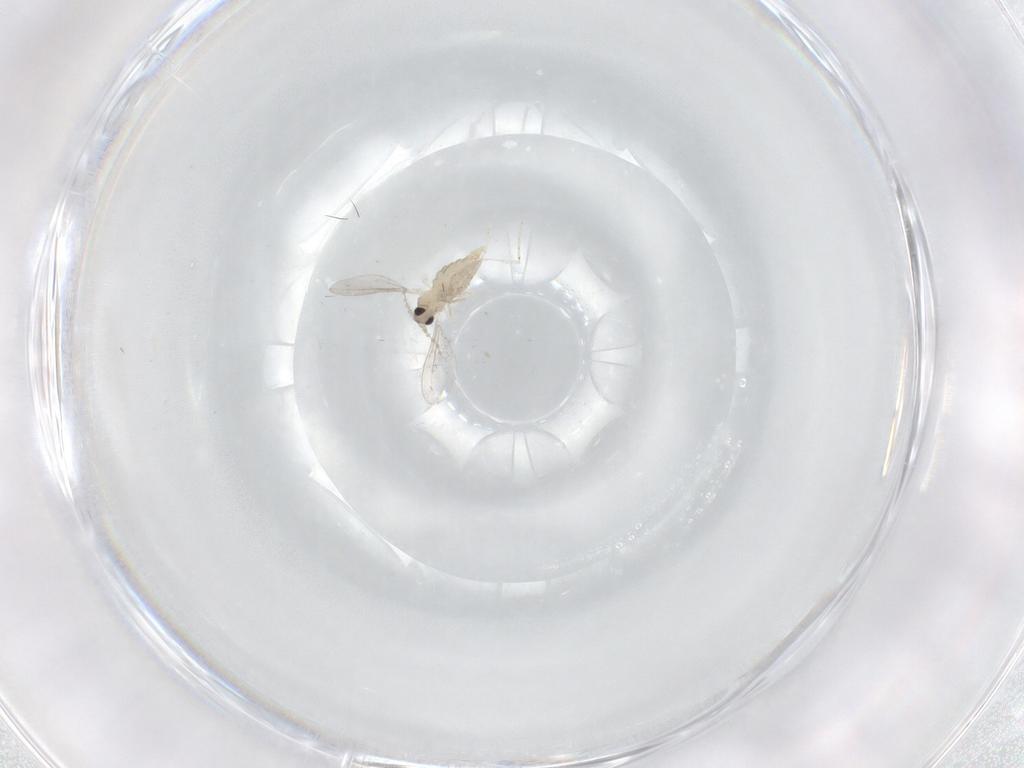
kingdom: Animalia
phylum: Arthropoda
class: Insecta
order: Diptera
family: Cecidomyiidae
